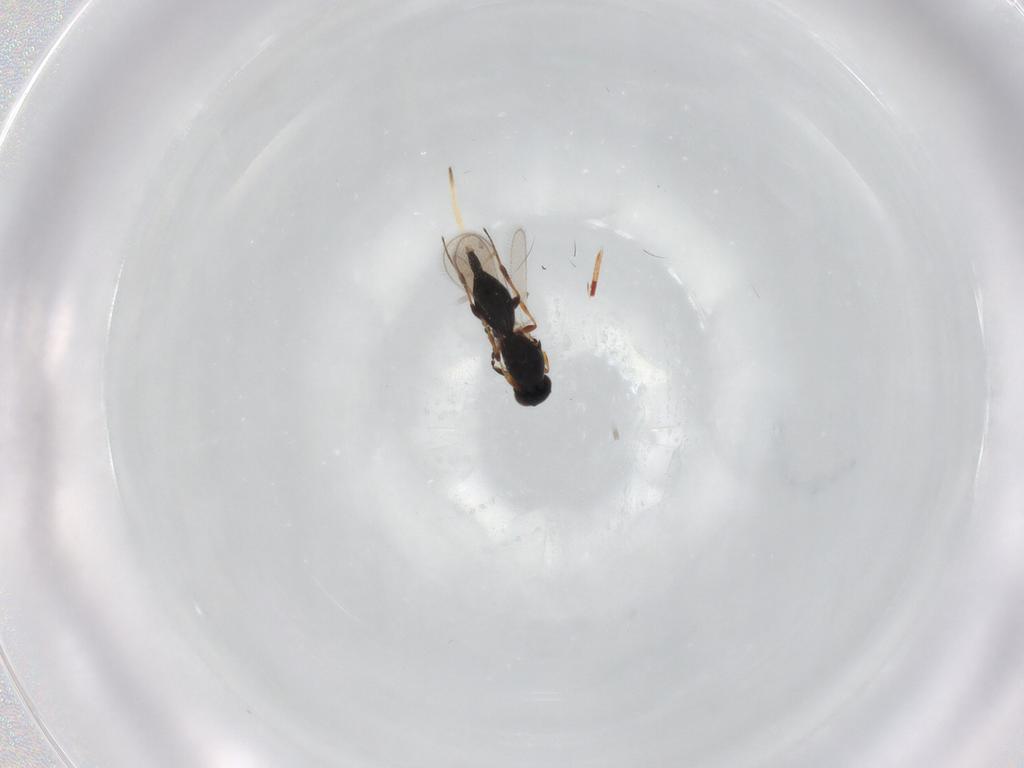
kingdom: Animalia
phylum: Arthropoda
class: Insecta
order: Hymenoptera
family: Platygastridae
